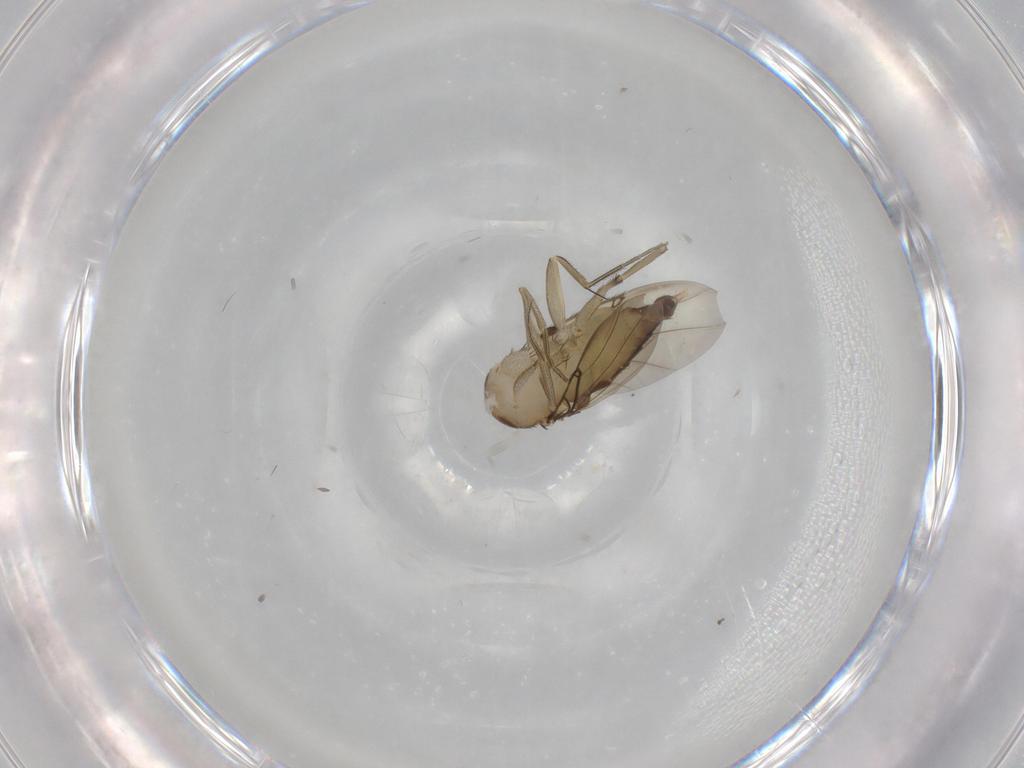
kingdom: Animalia
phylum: Arthropoda
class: Insecta
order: Diptera
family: Phoridae
